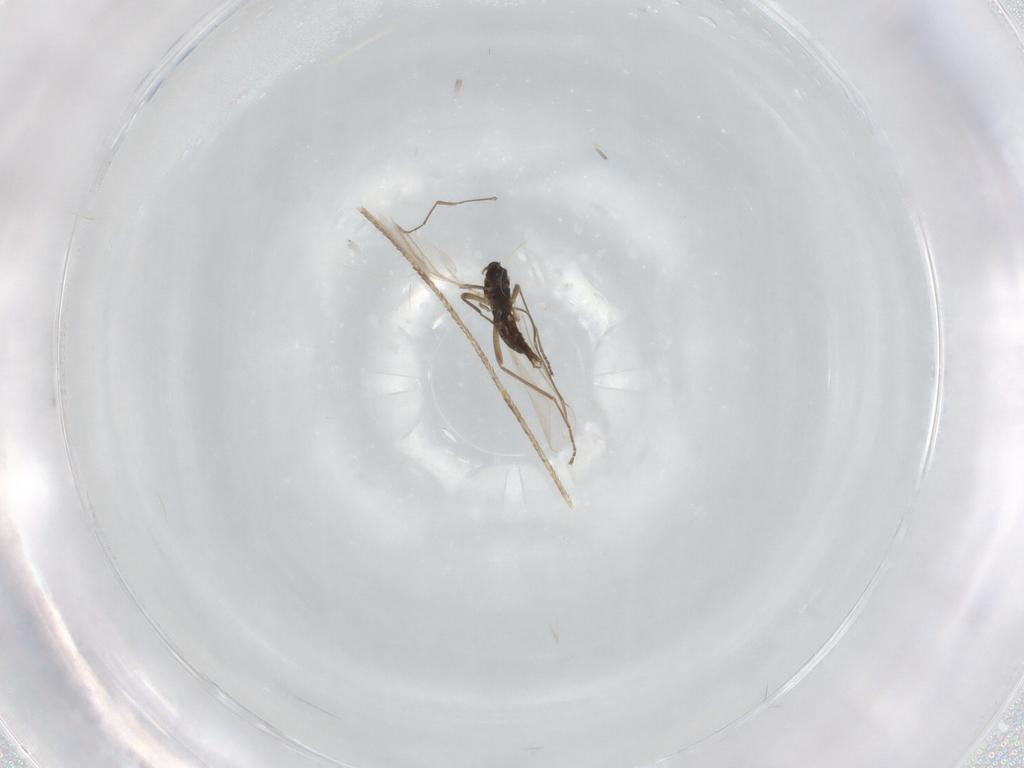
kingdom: Animalia
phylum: Arthropoda
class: Insecta
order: Diptera
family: Cecidomyiidae
